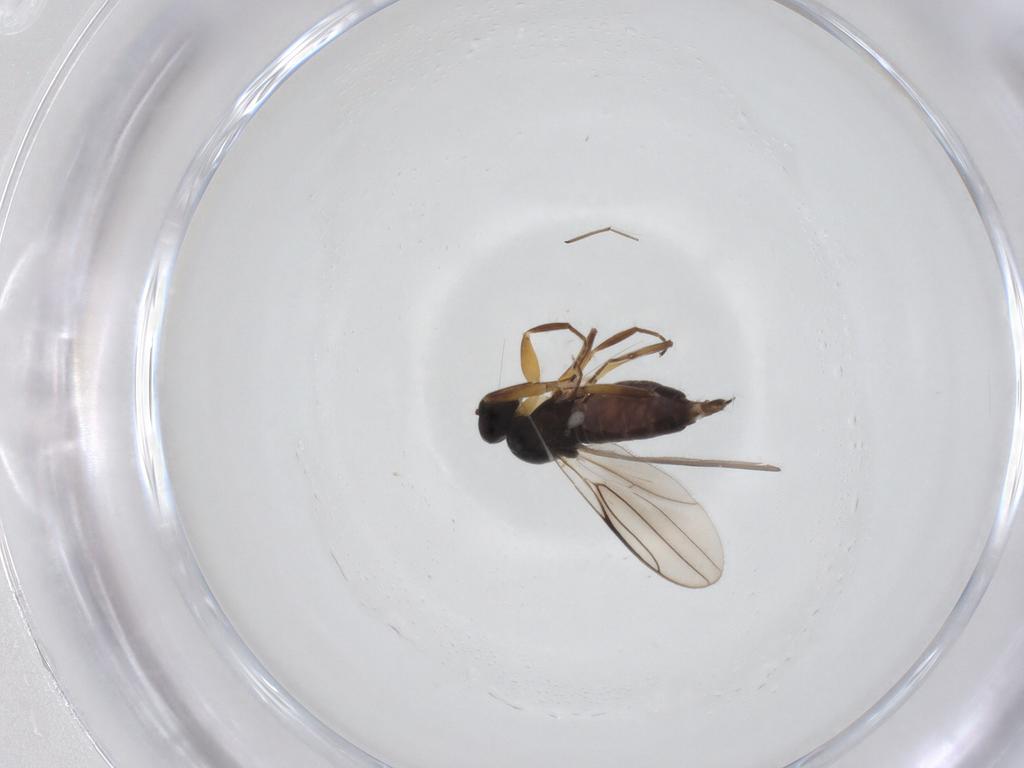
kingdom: Animalia
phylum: Arthropoda
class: Insecta
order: Diptera
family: Hybotidae
